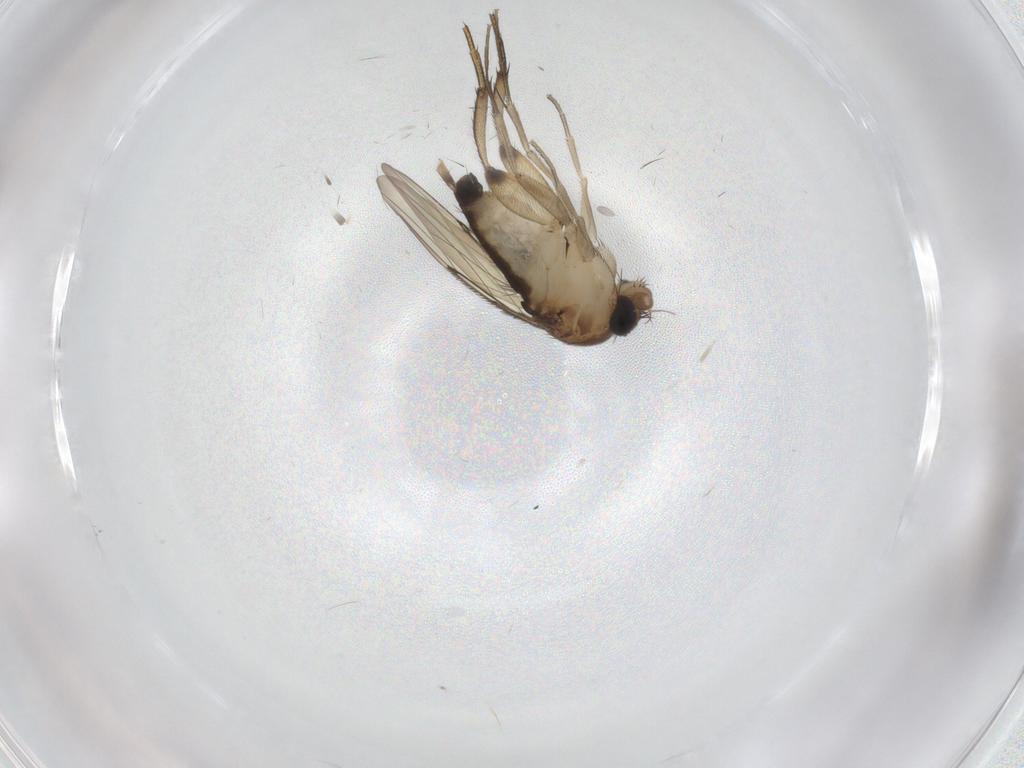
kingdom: Animalia
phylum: Arthropoda
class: Insecta
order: Diptera
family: Phoridae
